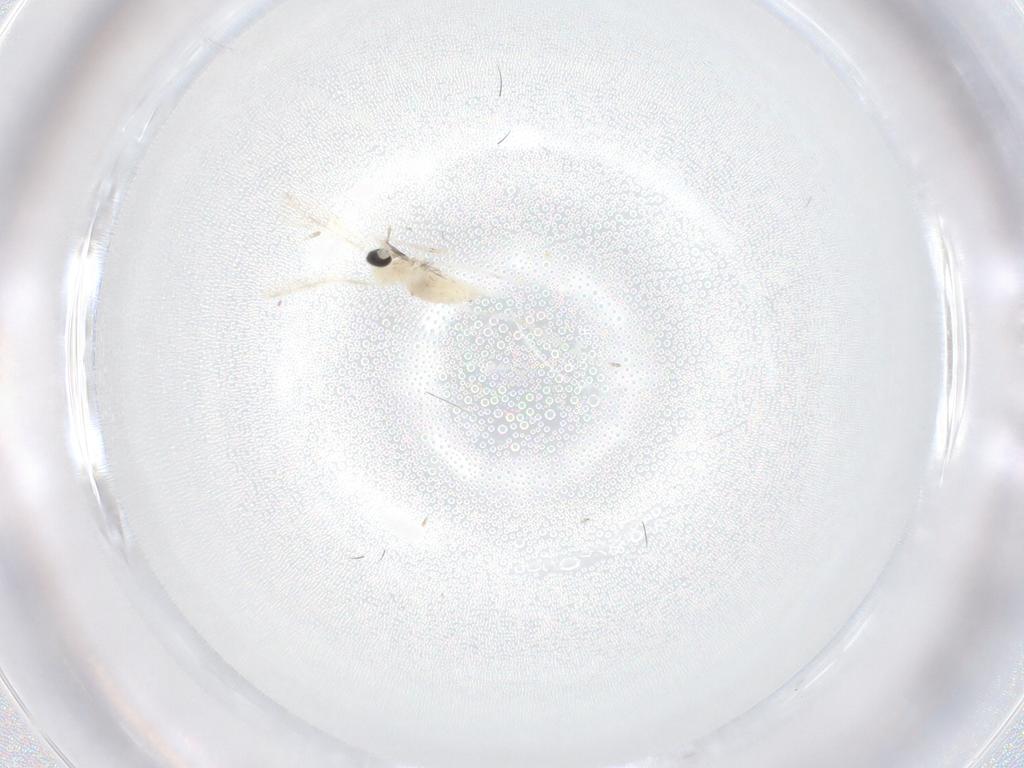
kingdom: Animalia
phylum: Arthropoda
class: Insecta
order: Diptera
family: Cecidomyiidae
